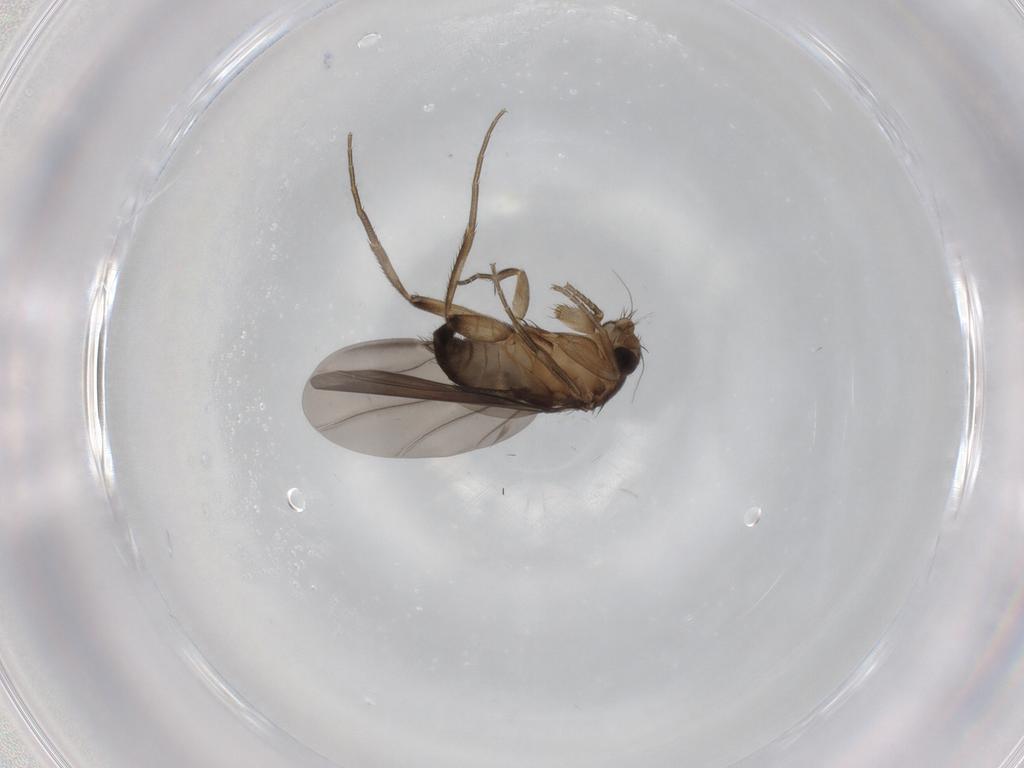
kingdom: Animalia
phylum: Arthropoda
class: Insecta
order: Diptera
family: Phoridae
